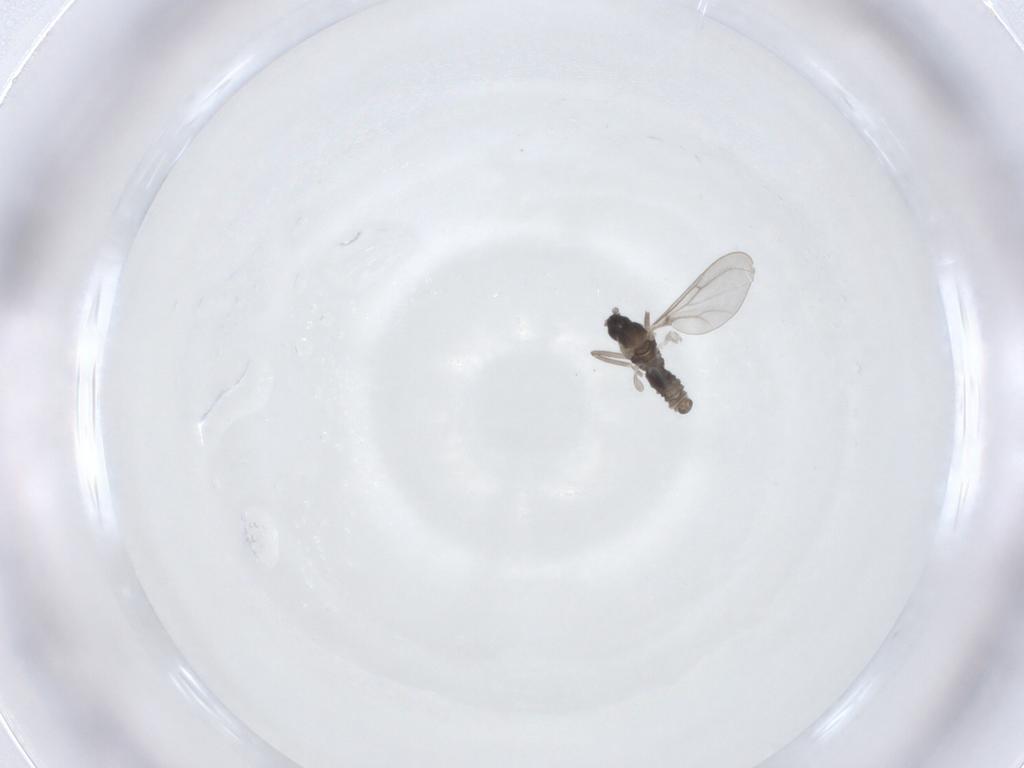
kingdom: Animalia
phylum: Arthropoda
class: Insecta
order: Diptera
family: Cecidomyiidae
